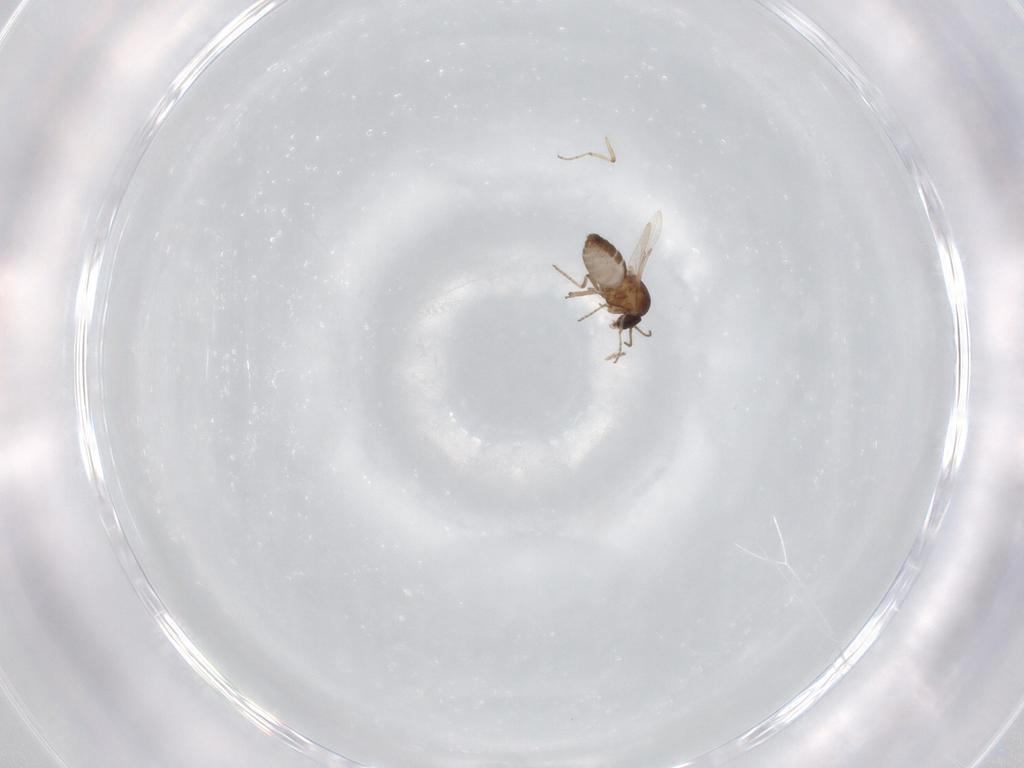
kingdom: Animalia
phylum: Arthropoda
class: Insecta
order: Diptera
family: Ceratopogonidae
